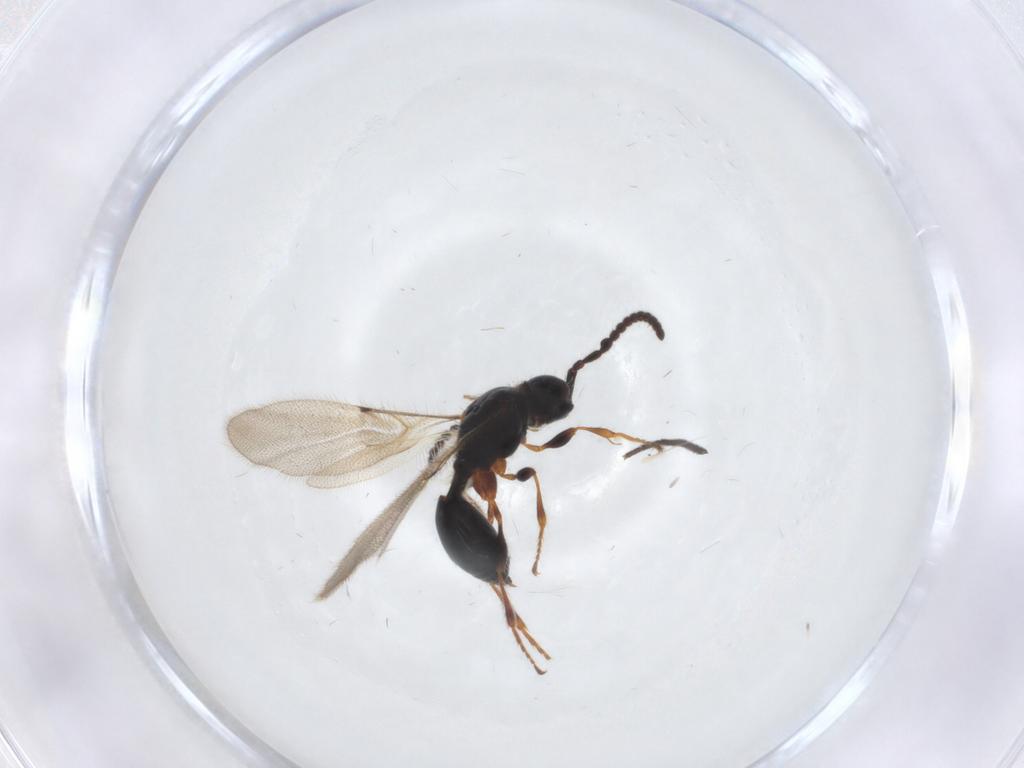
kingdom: Animalia
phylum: Arthropoda
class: Insecta
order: Hymenoptera
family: Diapriidae
